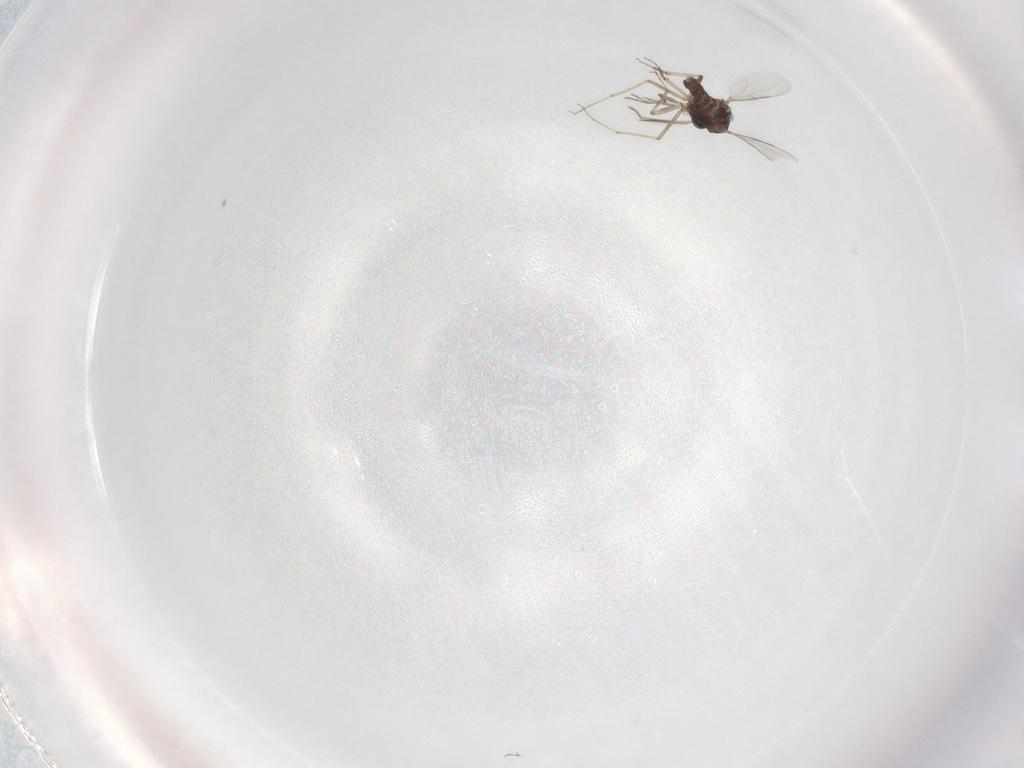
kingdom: Animalia
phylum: Arthropoda
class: Insecta
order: Diptera
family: Ceratopogonidae
